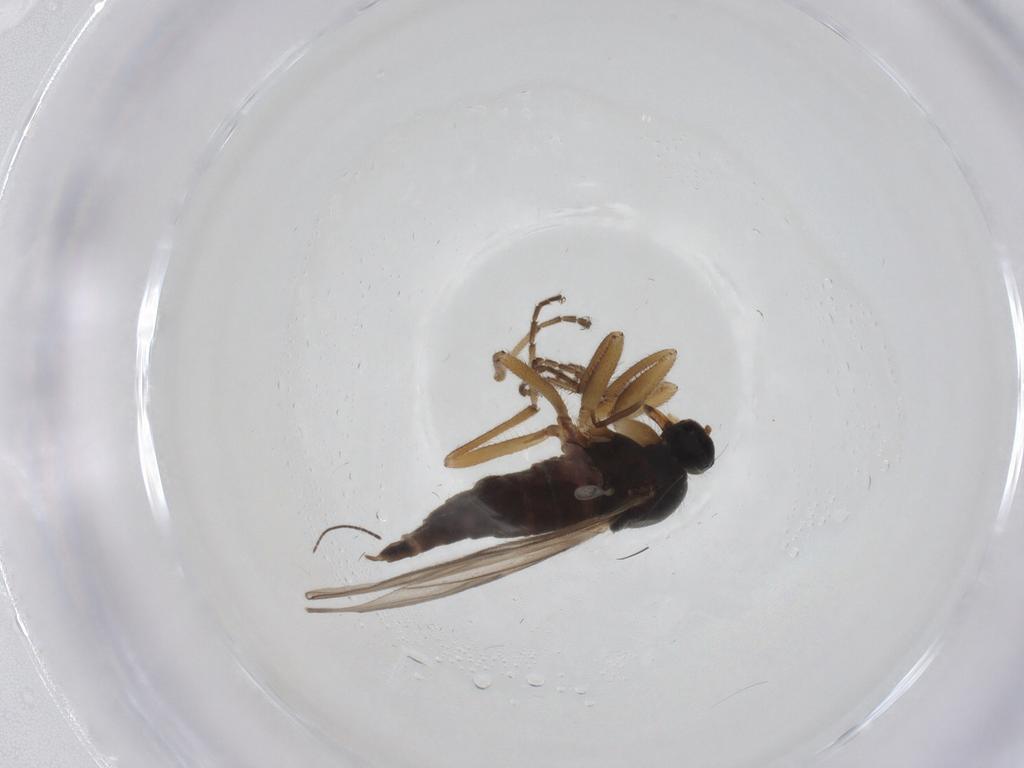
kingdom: Animalia
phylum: Arthropoda
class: Insecta
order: Diptera
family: Hybotidae
